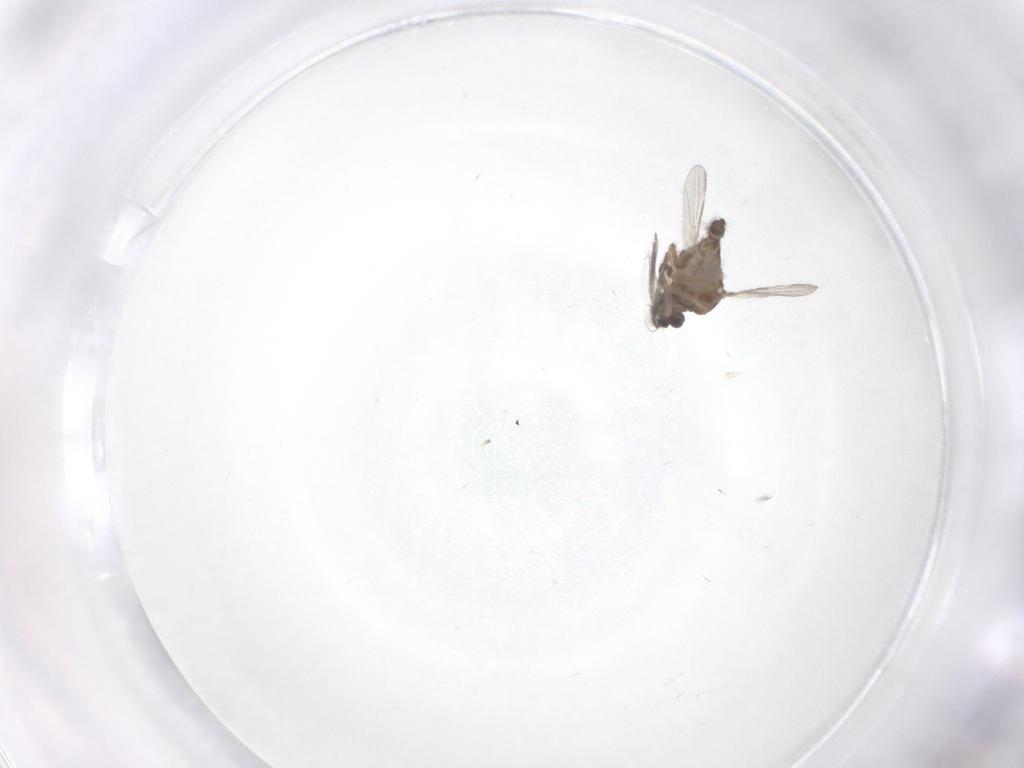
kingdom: Animalia
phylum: Arthropoda
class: Insecta
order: Diptera
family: Ceratopogonidae
